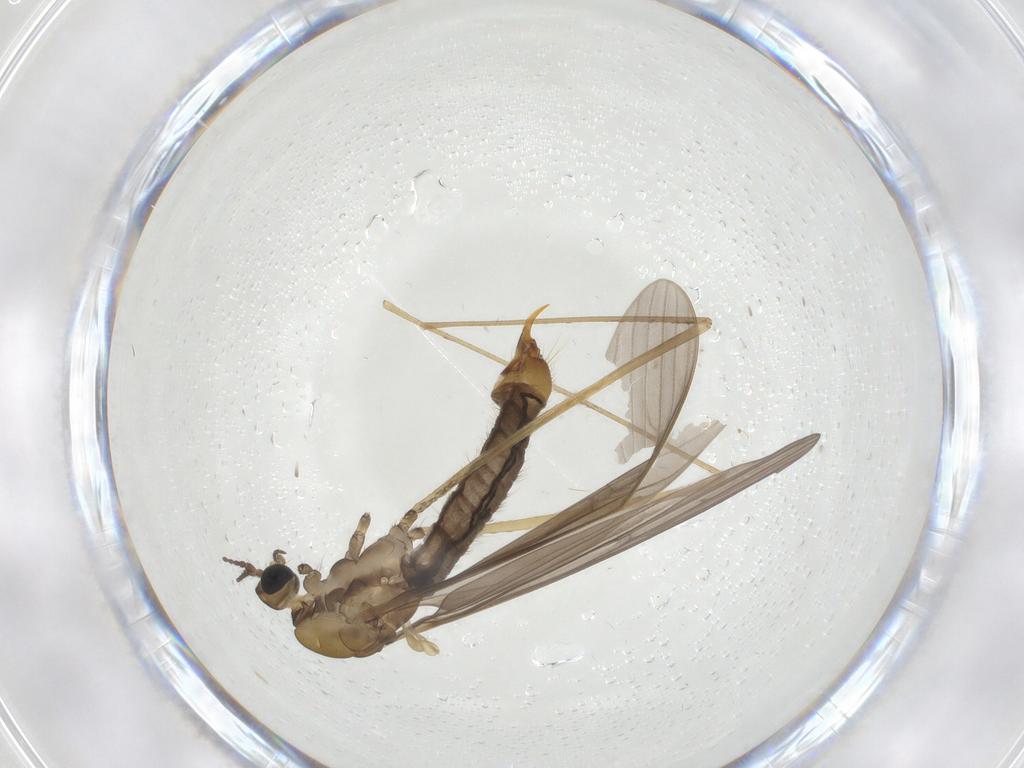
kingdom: Animalia
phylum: Arthropoda
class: Insecta
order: Diptera
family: Limoniidae
